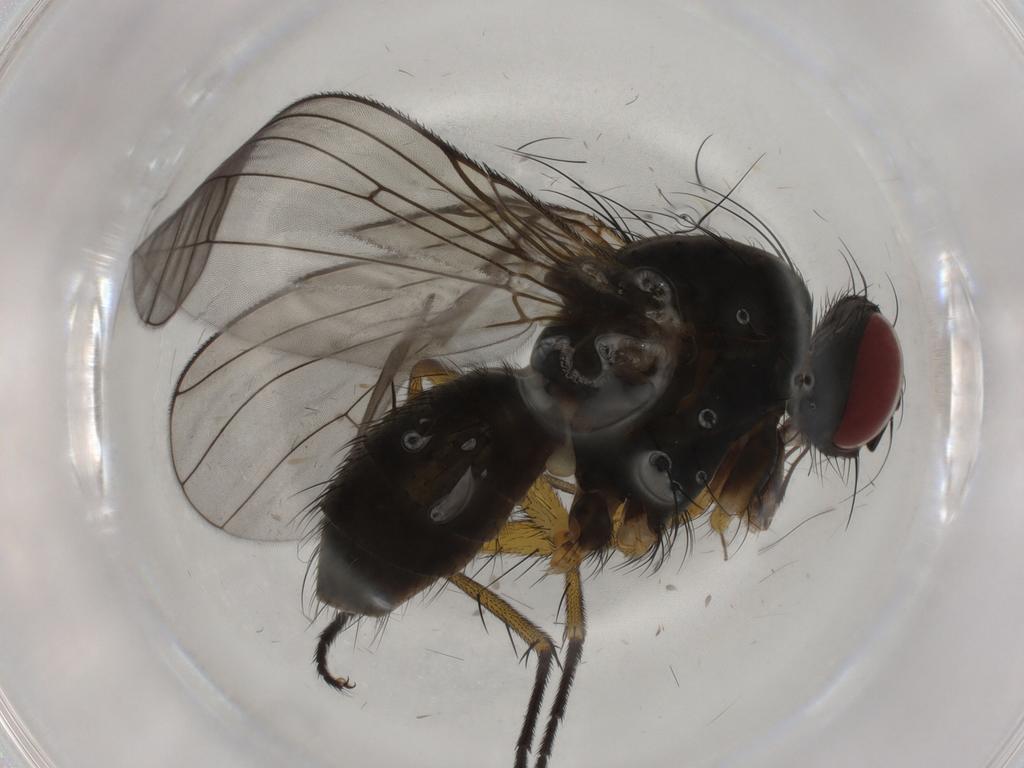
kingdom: Animalia
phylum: Arthropoda
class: Insecta
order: Diptera
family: Muscidae
